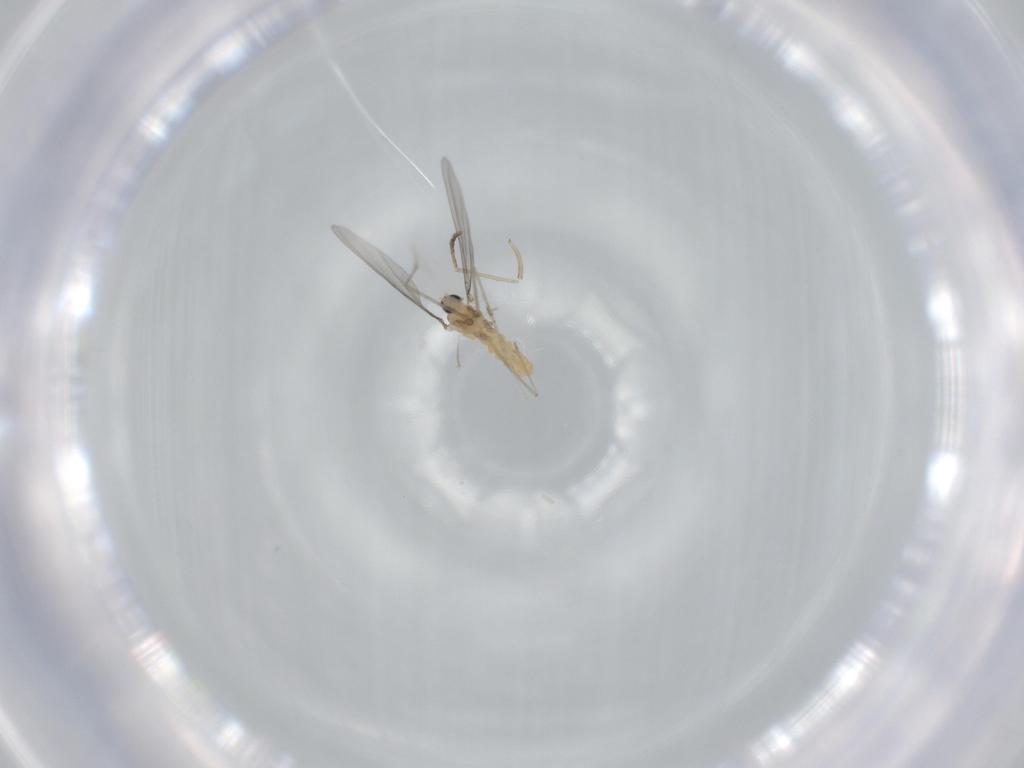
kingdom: Animalia
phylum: Arthropoda
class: Insecta
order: Diptera
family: Cecidomyiidae
